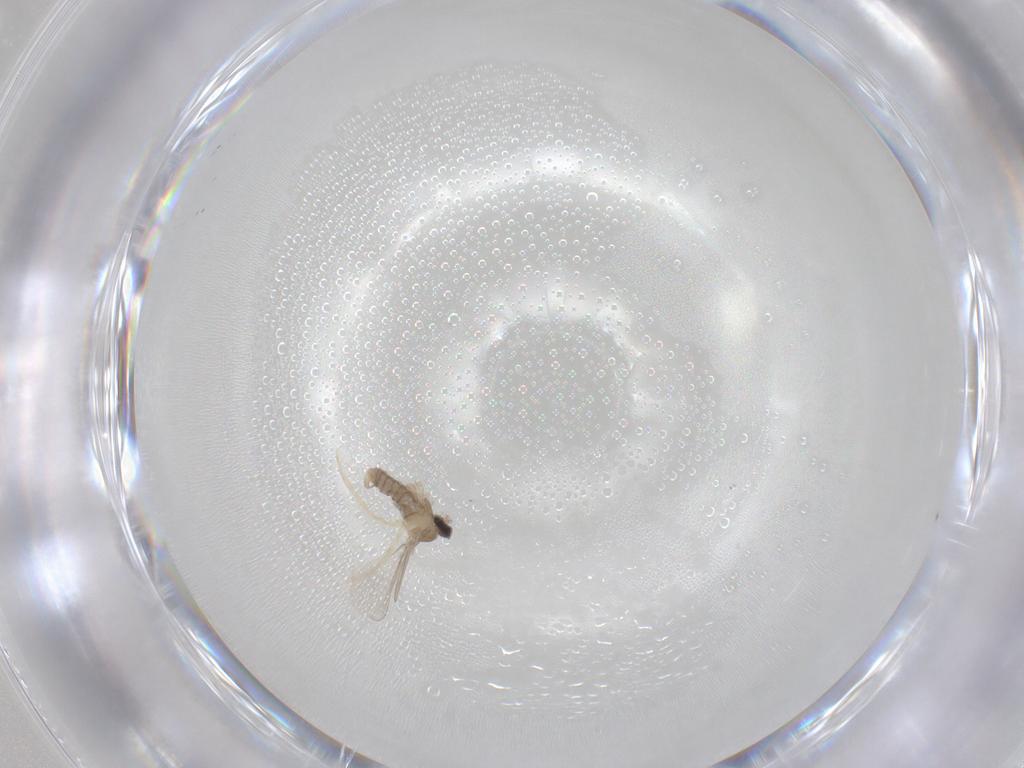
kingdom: Animalia
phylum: Arthropoda
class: Insecta
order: Diptera
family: Cecidomyiidae
